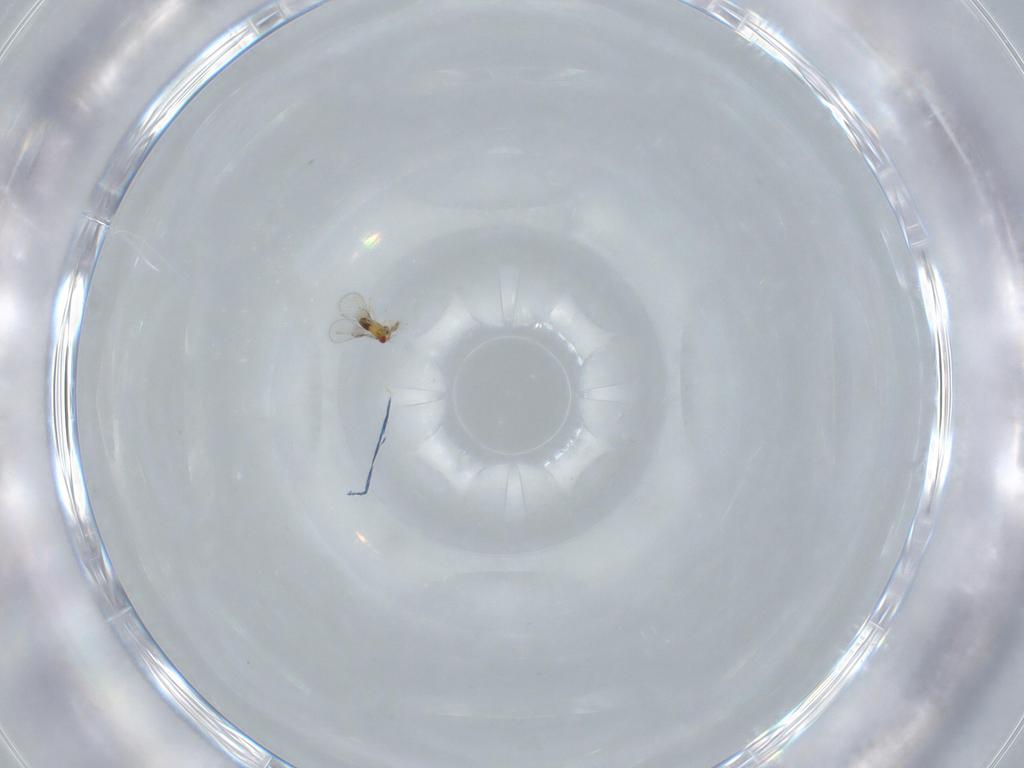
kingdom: Animalia
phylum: Arthropoda
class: Insecta
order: Hymenoptera
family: Trichogrammatidae
